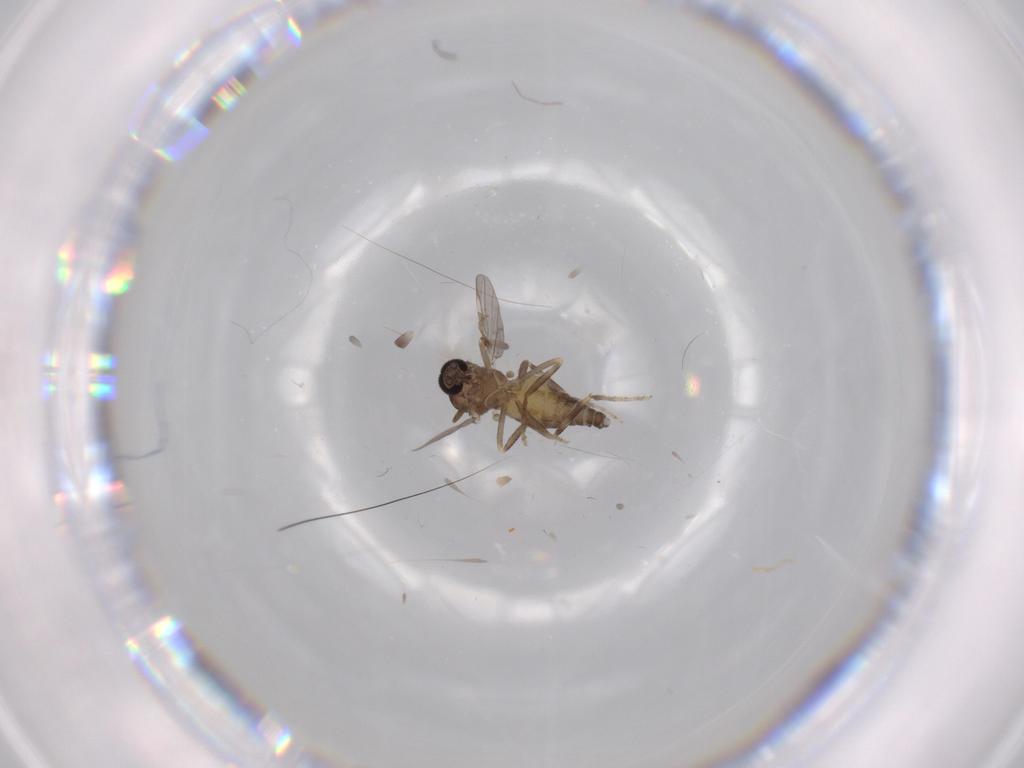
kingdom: Animalia
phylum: Arthropoda
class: Insecta
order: Diptera
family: Ceratopogonidae
